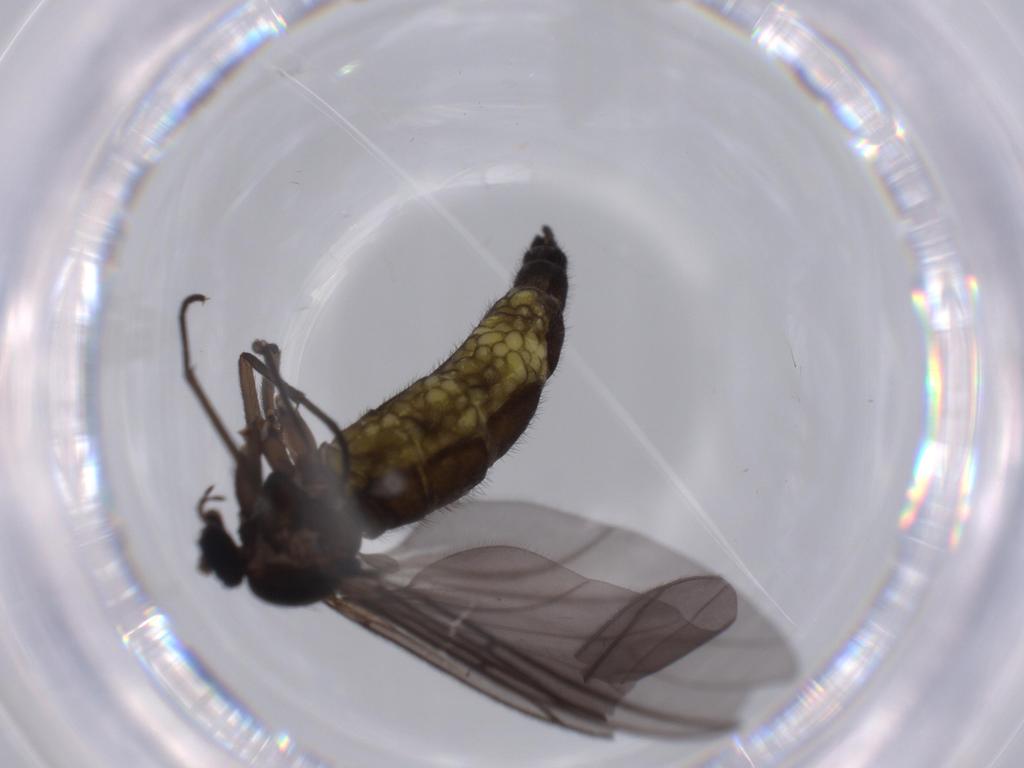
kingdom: Animalia
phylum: Arthropoda
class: Insecta
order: Diptera
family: Sciaridae
